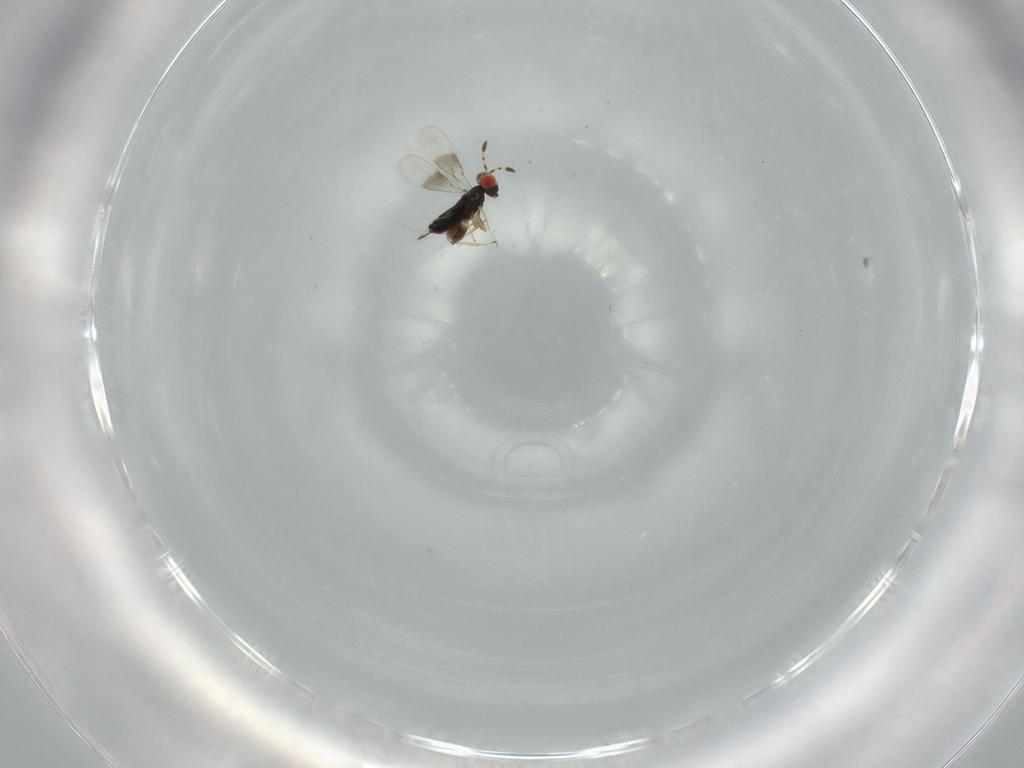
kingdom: Animalia
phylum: Arthropoda
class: Insecta
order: Hymenoptera
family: Azotidae
